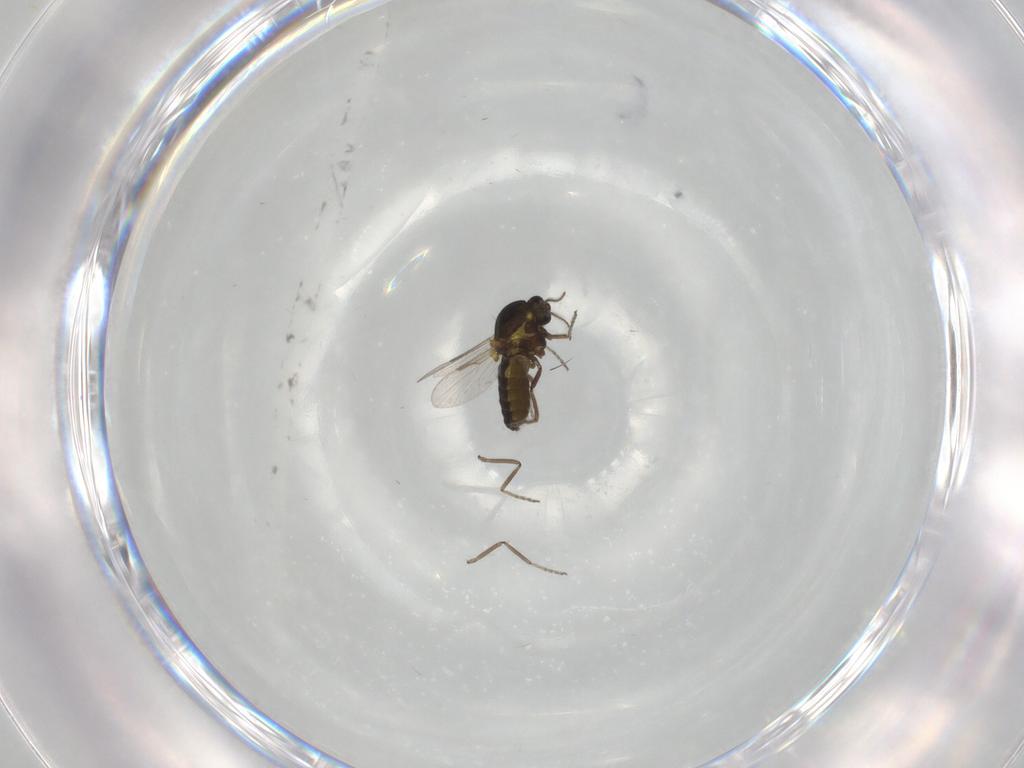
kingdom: Animalia
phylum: Arthropoda
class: Insecta
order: Diptera
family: Ceratopogonidae
